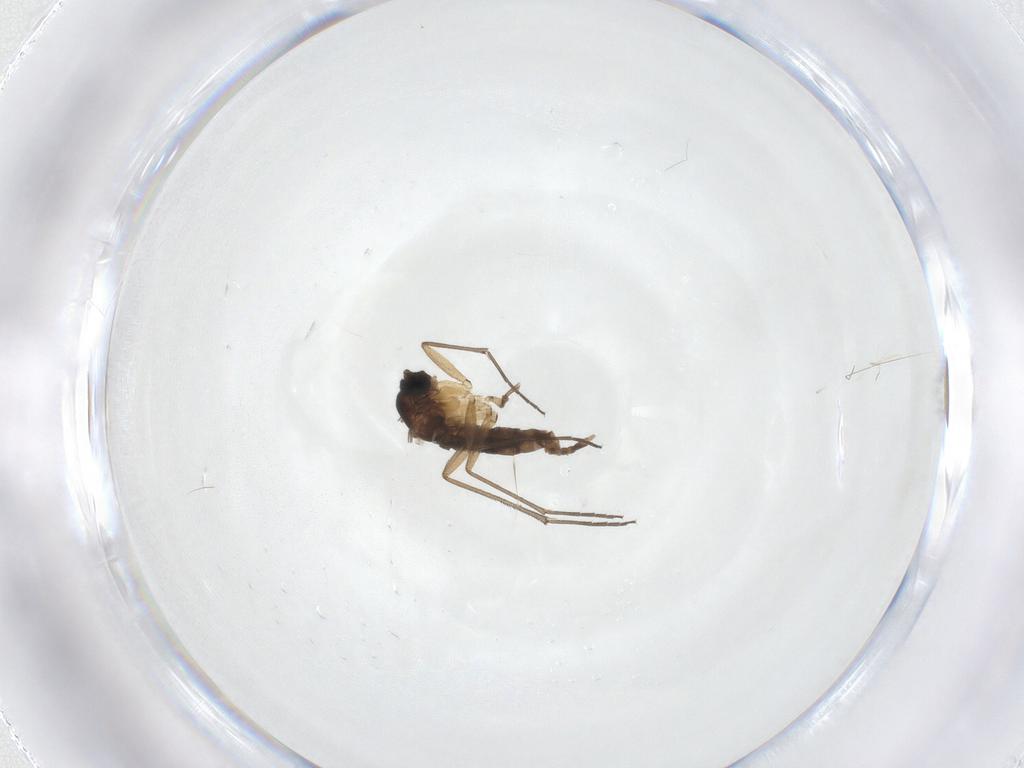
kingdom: Animalia
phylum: Arthropoda
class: Insecta
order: Diptera
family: Sciaridae
